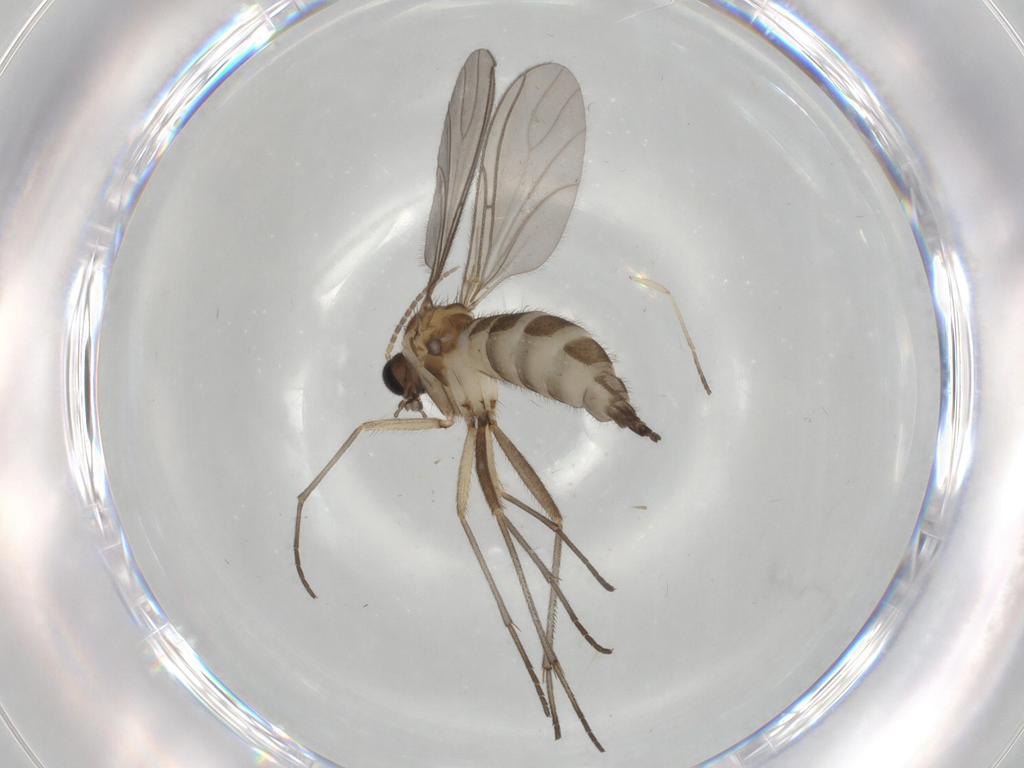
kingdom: Animalia
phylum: Arthropoda
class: Insecta
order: Diptera
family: Sciaridae
